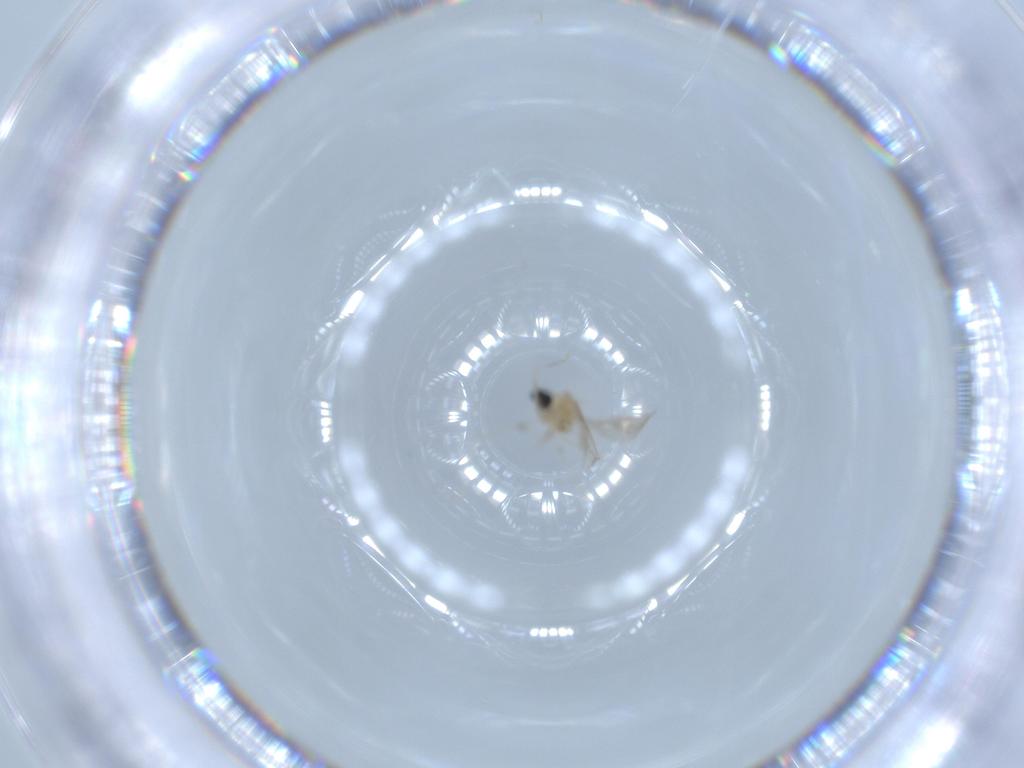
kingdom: Animalia
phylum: Arthropoda
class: Insecta
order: Diptera
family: Cecidomyiidae
